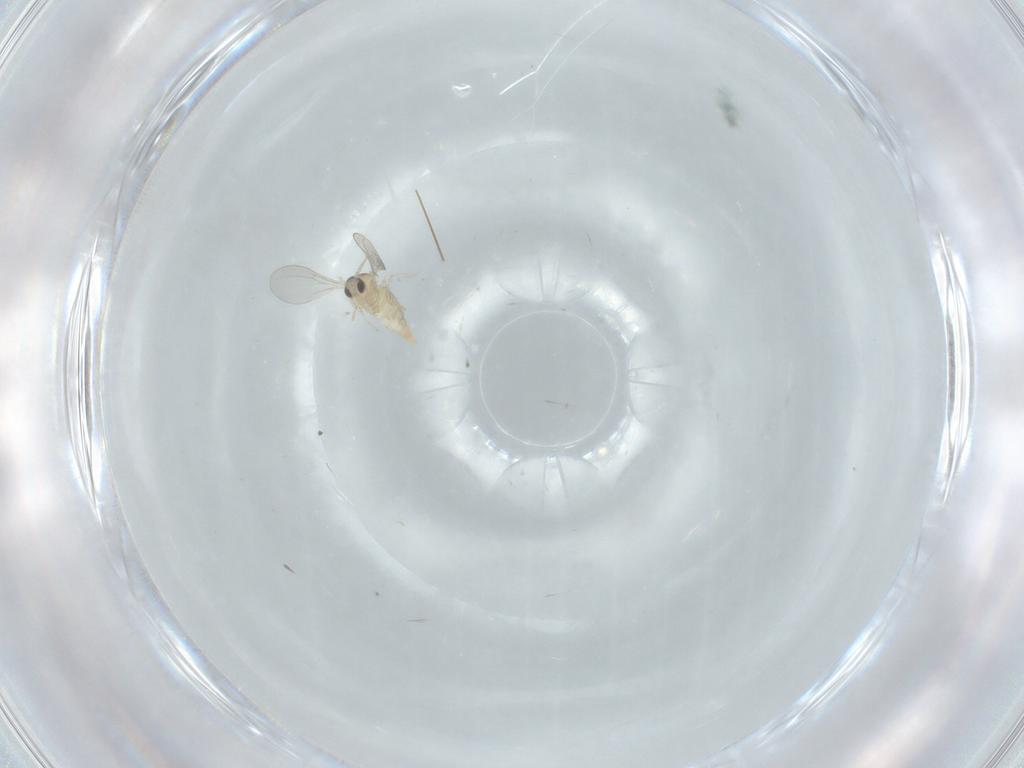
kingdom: Animalia
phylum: Arthropoda
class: Insecta
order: Diptera
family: Cecidomyiidae
